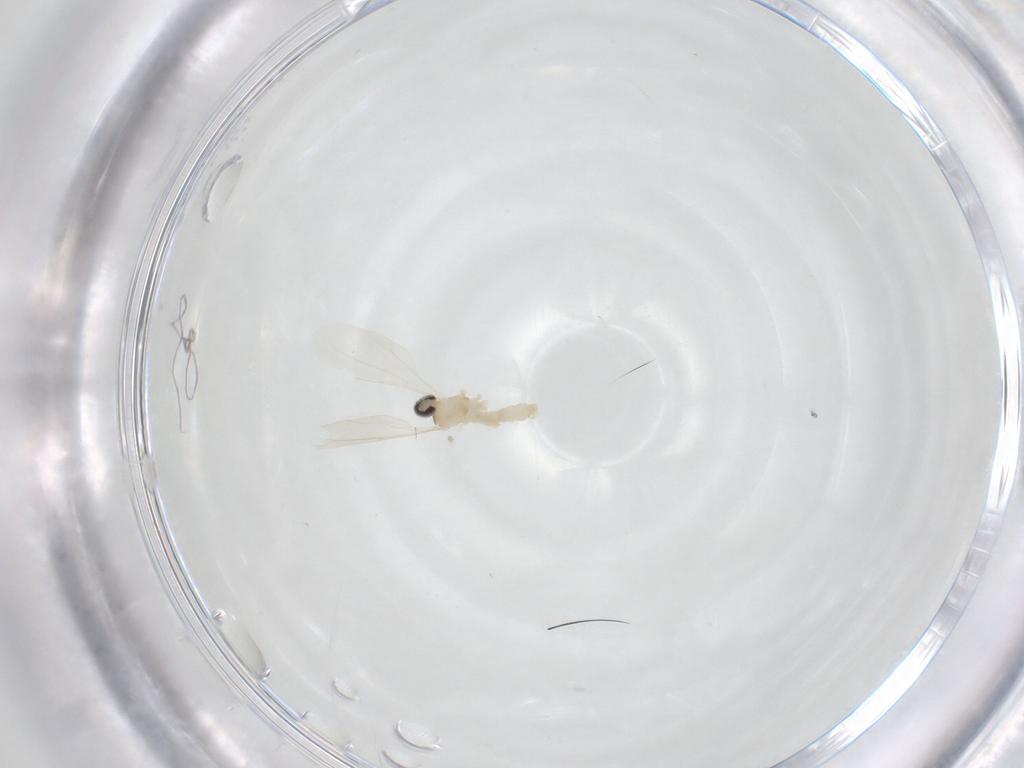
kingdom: Animalia
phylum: Arthropoda
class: Insecta
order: Diptera
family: Cecidomyiidae
